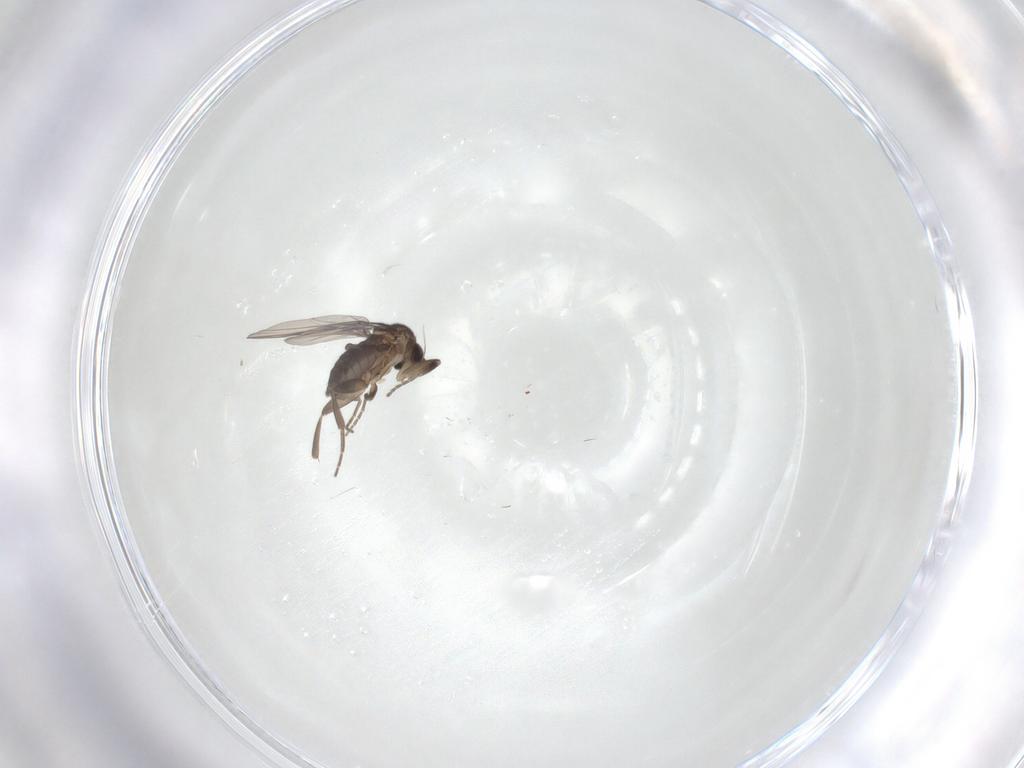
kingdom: Animalia
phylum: Arthropoda
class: Insecta
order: Diptera
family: Phoridae
